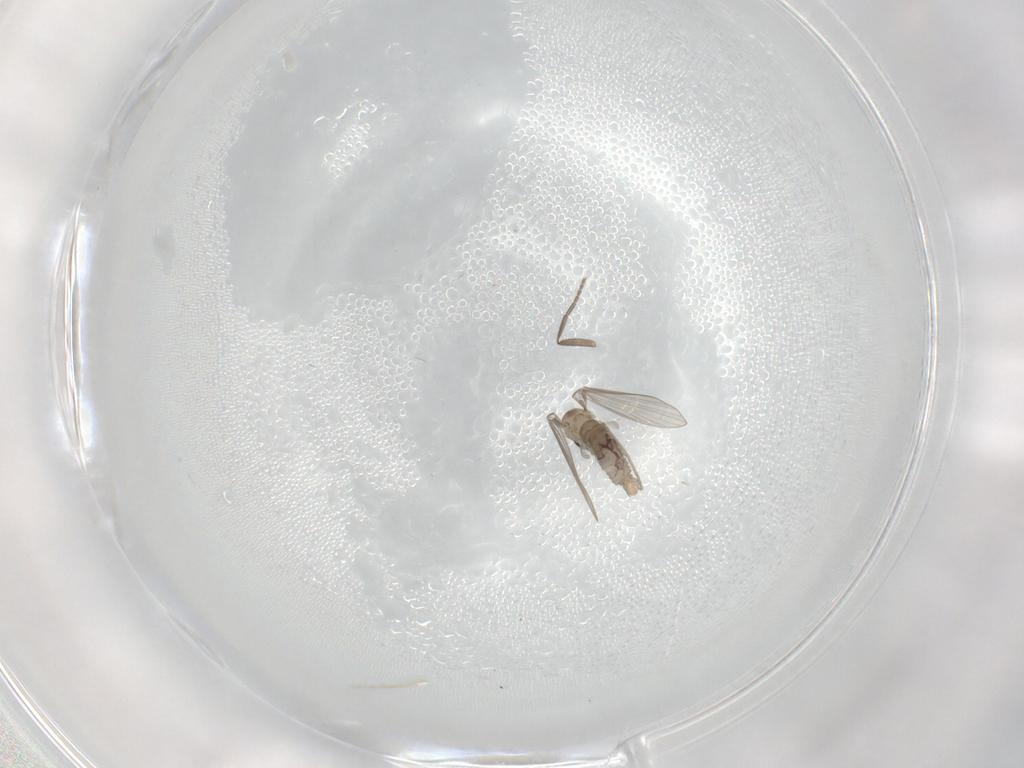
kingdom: Animalia
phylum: Arthropoda
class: Insecta
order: Diptera
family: Psychodidae
